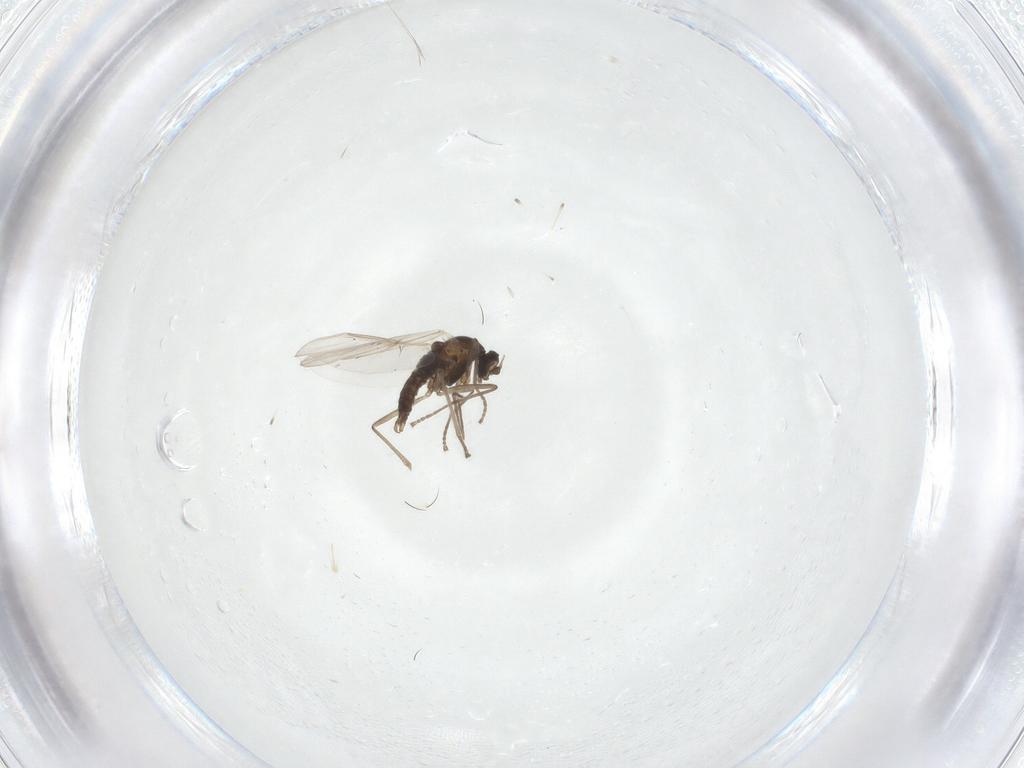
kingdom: Animalia
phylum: Arthropoda
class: Insecta
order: Diptera
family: Cecidomyiidae
